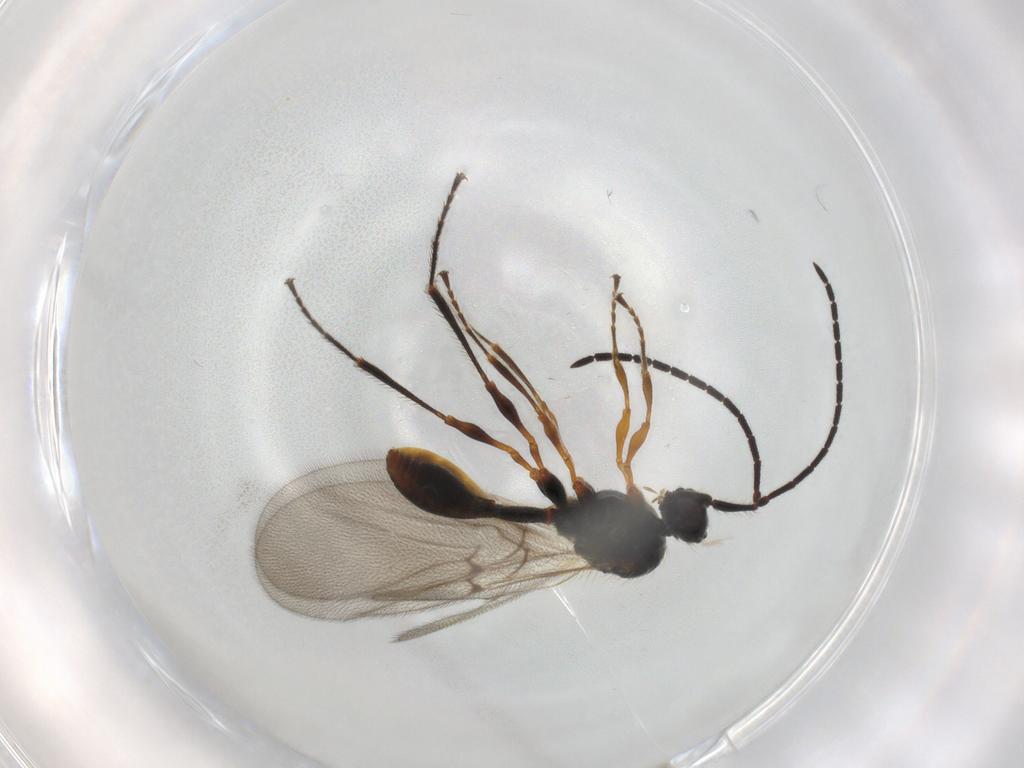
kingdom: Animalia
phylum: Arthropoda
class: Insecta
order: Hymenoptera
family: Diapriidae
